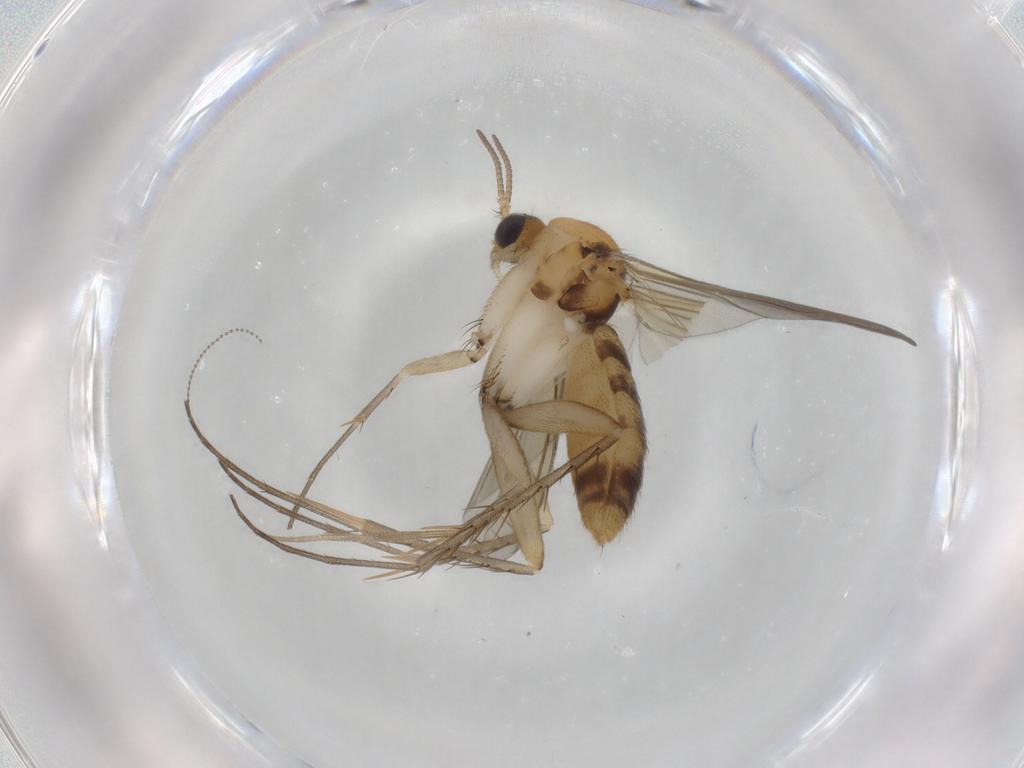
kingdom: Animalia
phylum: Arthropoda
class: Insecta
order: Diptera
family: Mycetophilidae
